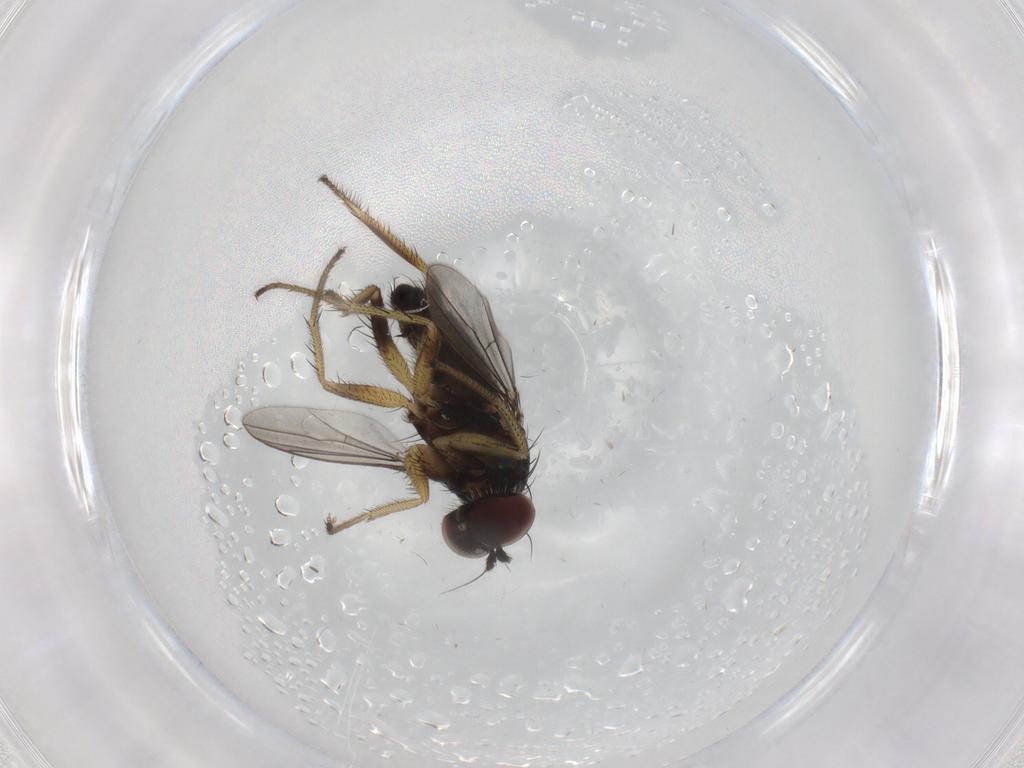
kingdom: Animalia
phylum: Arthropoda
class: Insecta
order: Diptera
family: Dolichopodidae
